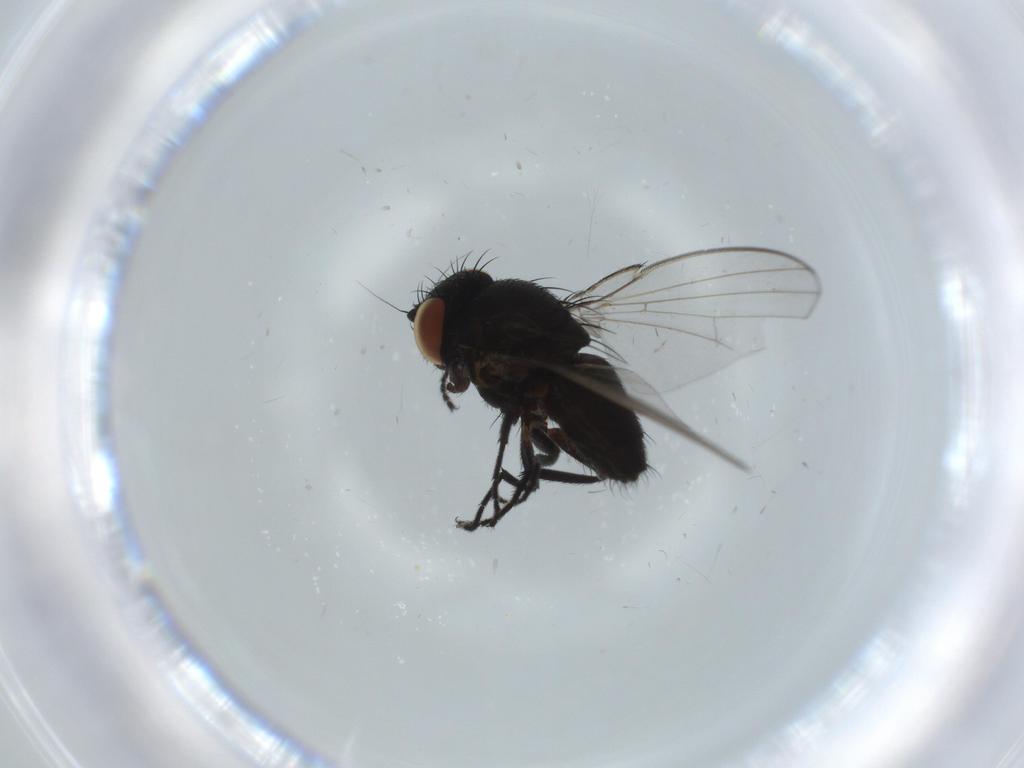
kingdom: Animalia
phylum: Arthropoda
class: Insecta
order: Diptera
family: Milichiidae
